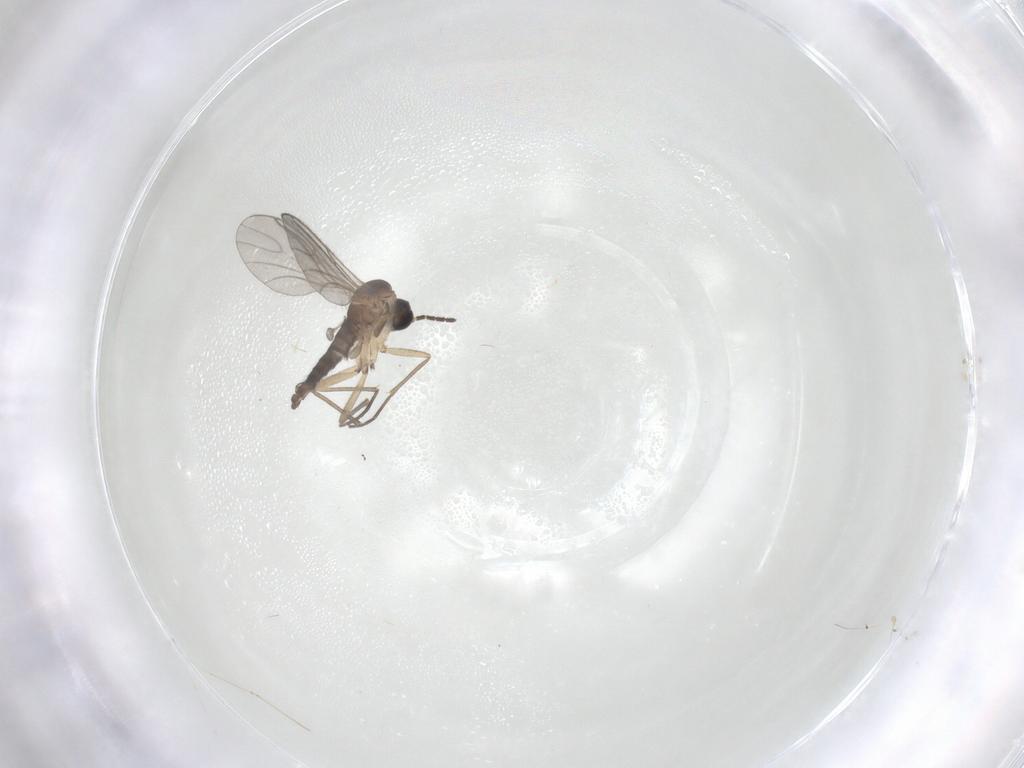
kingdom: Animalia
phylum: Arthropoda
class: Insecta
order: Diptera
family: Sciaridae
